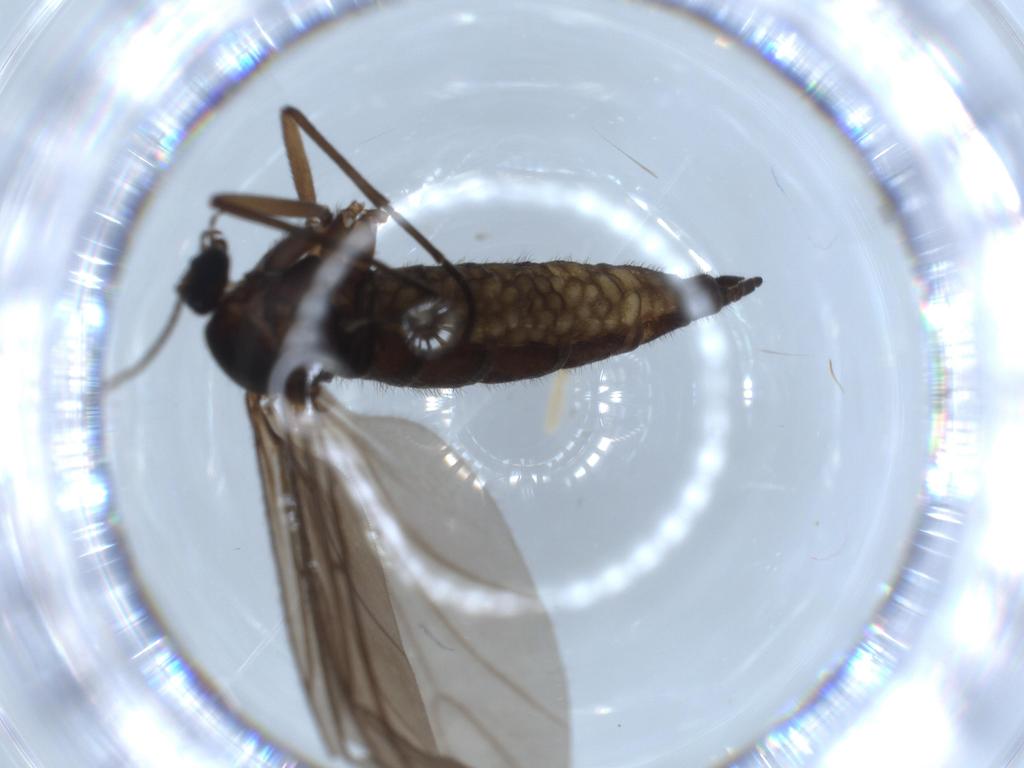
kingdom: Animalia
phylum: Arthropoda
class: Insecta
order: Diptera
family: Sciaridae
